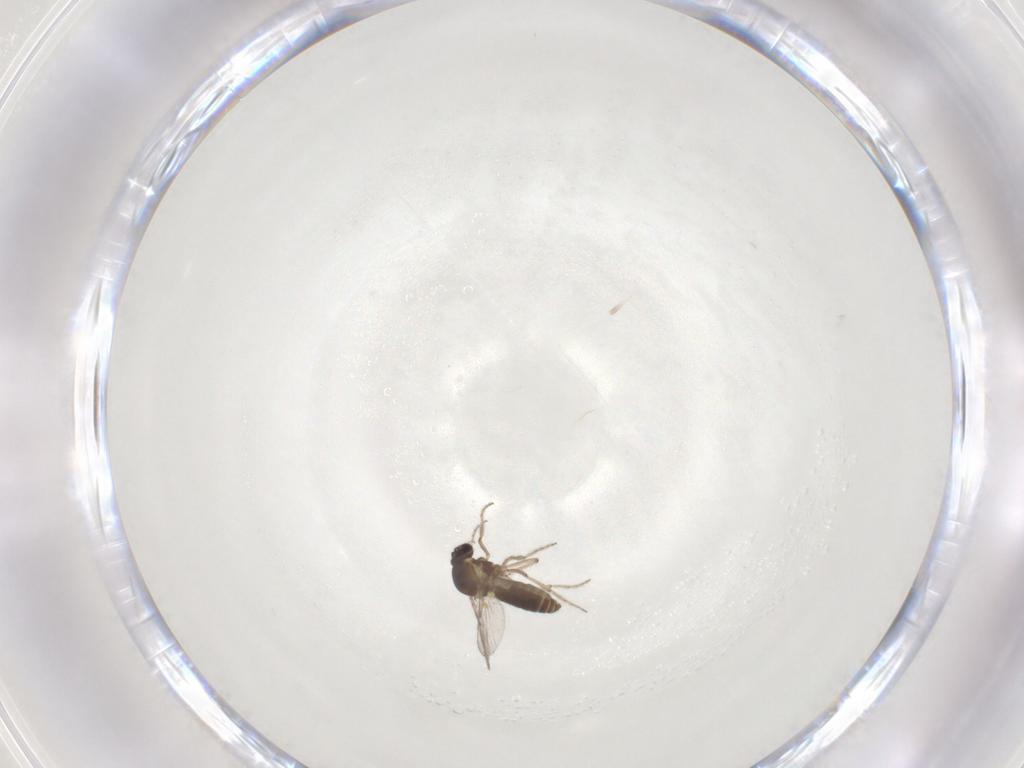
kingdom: Animalia
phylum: Arthropoda
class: Insecta
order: Diptera
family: Ceratopogonidae
